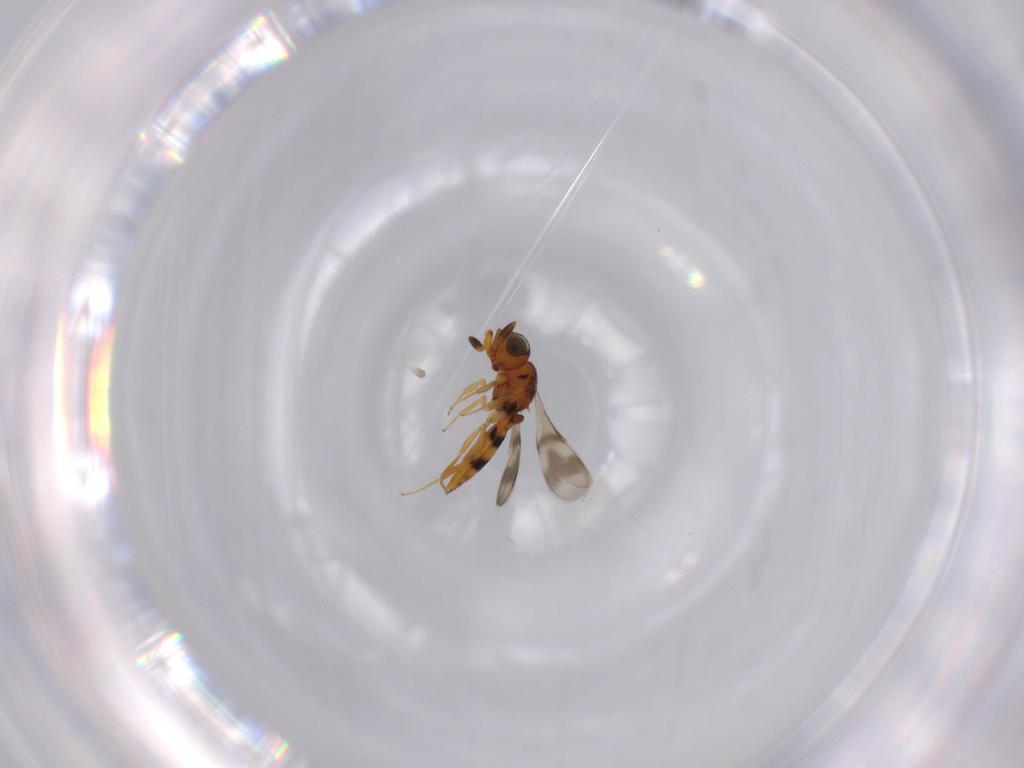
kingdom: Animalia
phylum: Arthropoda
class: Insecta
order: Hymenoptera
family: Scelionidae
